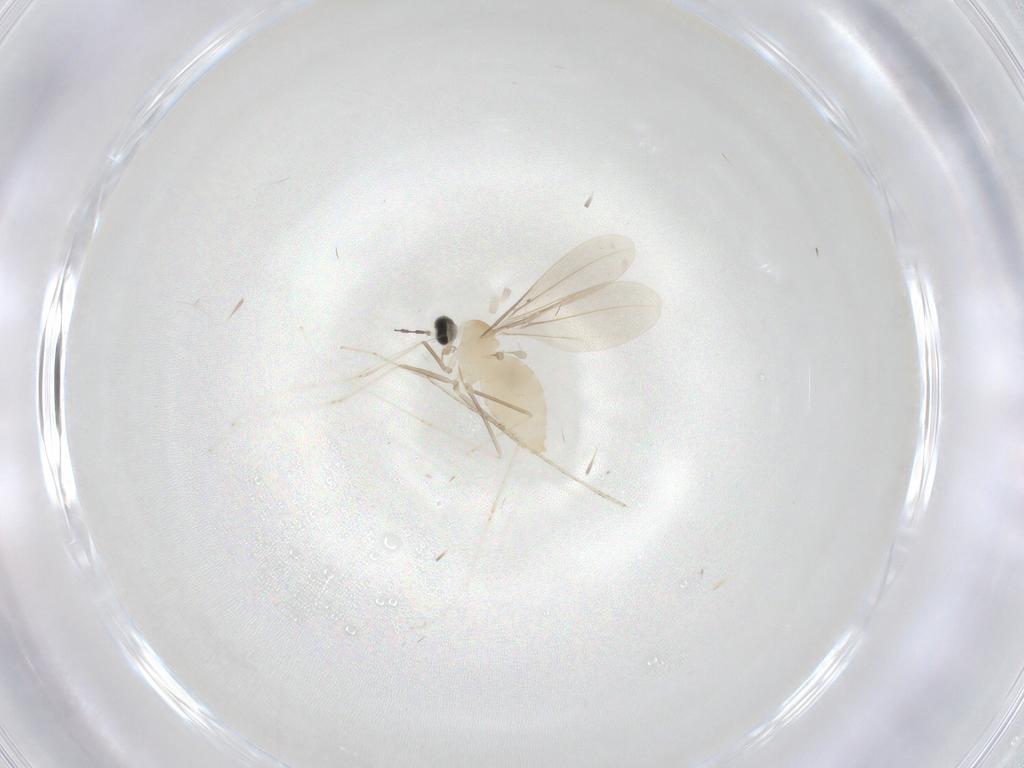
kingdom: Animalia
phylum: Arthropoda
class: Insecta
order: Diptera
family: Cecidomyiidae
